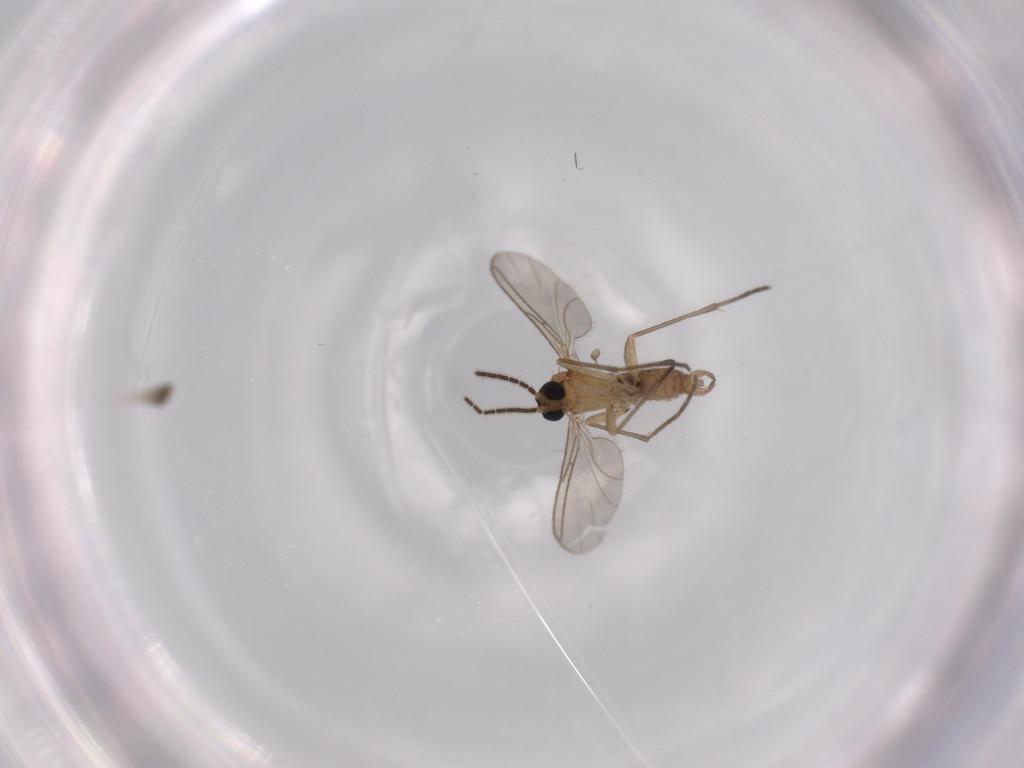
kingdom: Animalia
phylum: Arthropoda
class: Insecta
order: Diptera
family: Sciaridae
